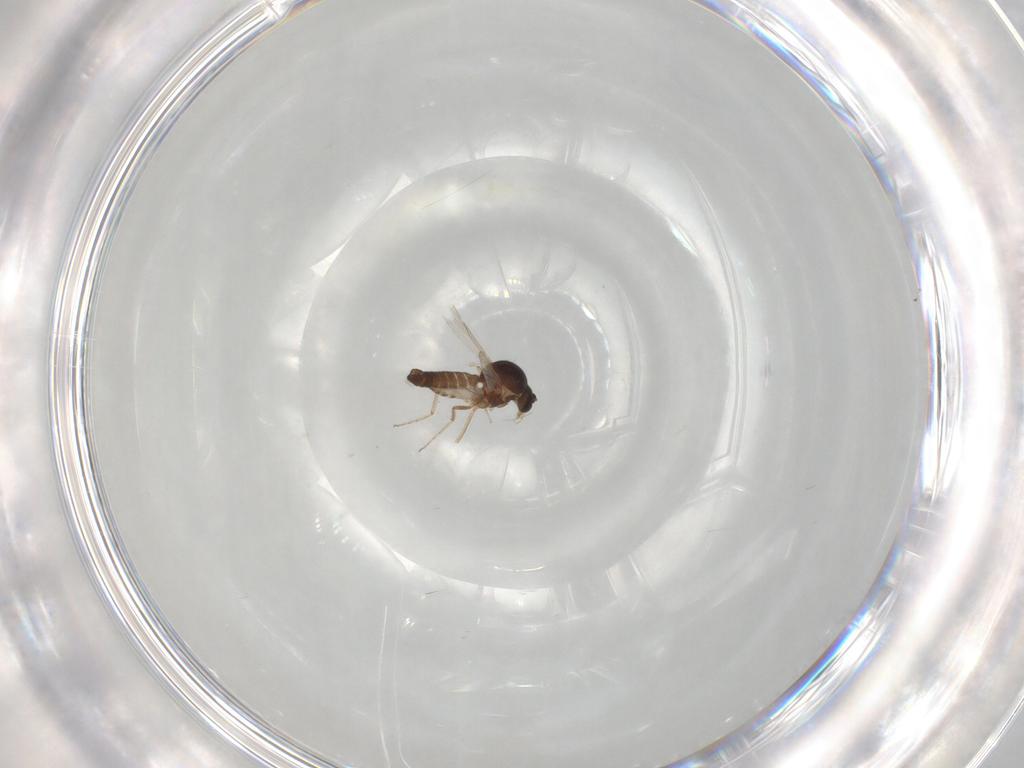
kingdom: Animalia
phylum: Arthropoda
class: Insecta
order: Diptera
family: Ceratopogonidae
